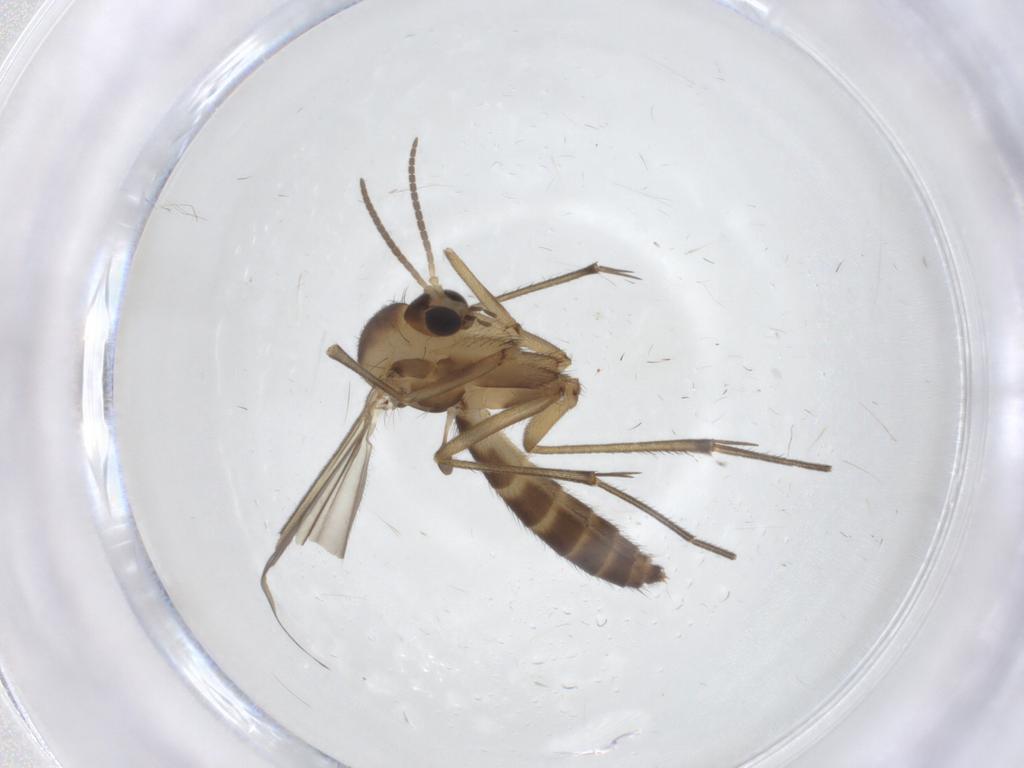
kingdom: Animalia
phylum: Arthropoda
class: Insecta
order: Diptera
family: Mycetophilidae
